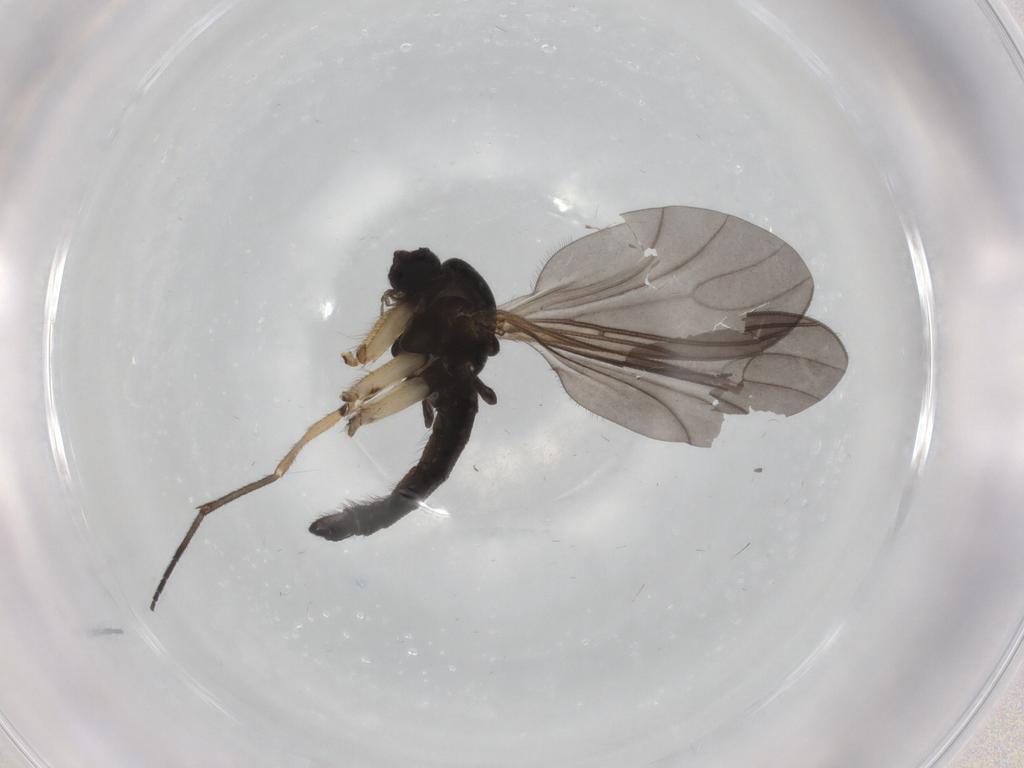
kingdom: Animalia
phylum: Arthropoda
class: Insecta
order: Diptera
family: Sciaridae
